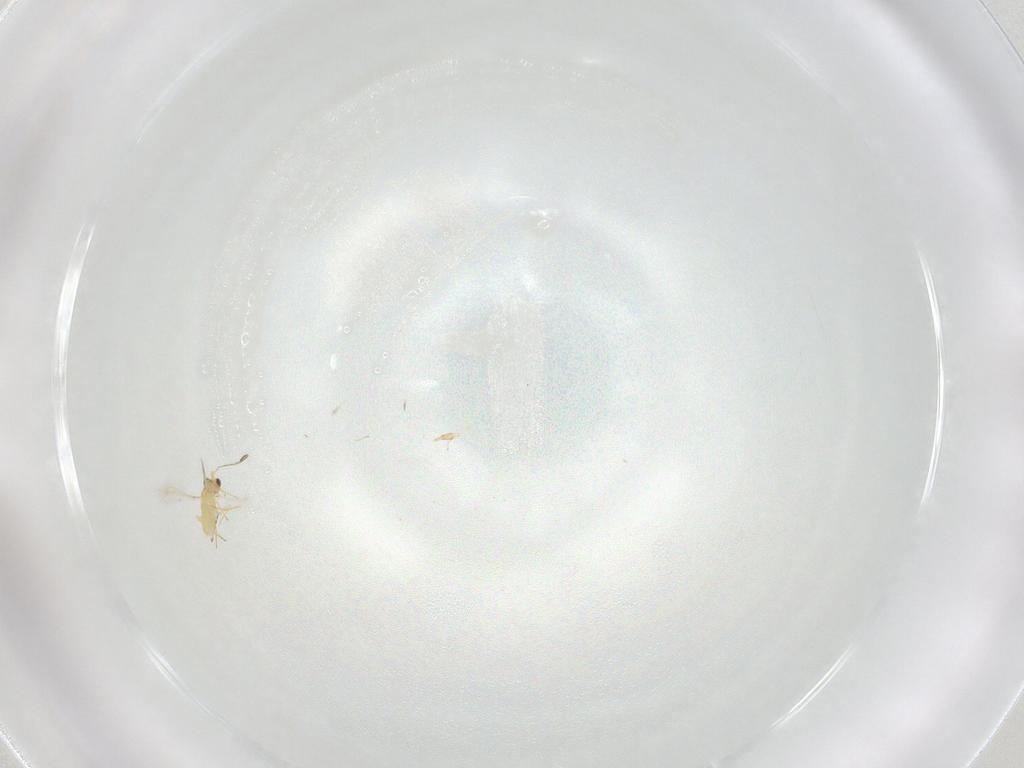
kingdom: Animalia
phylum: Arthropoda
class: Insecta
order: Hymenoptera
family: Mymaridae
